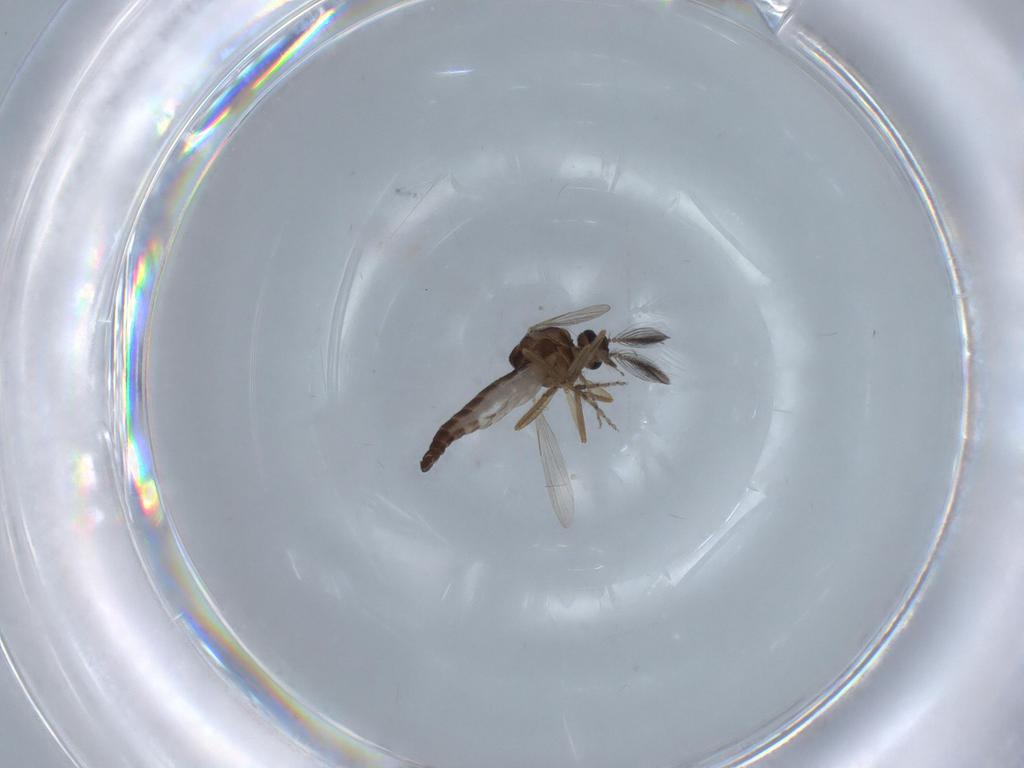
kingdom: Animalia
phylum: Arthropoda
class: Insecta
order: Diptera
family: Ceratopogonidae
